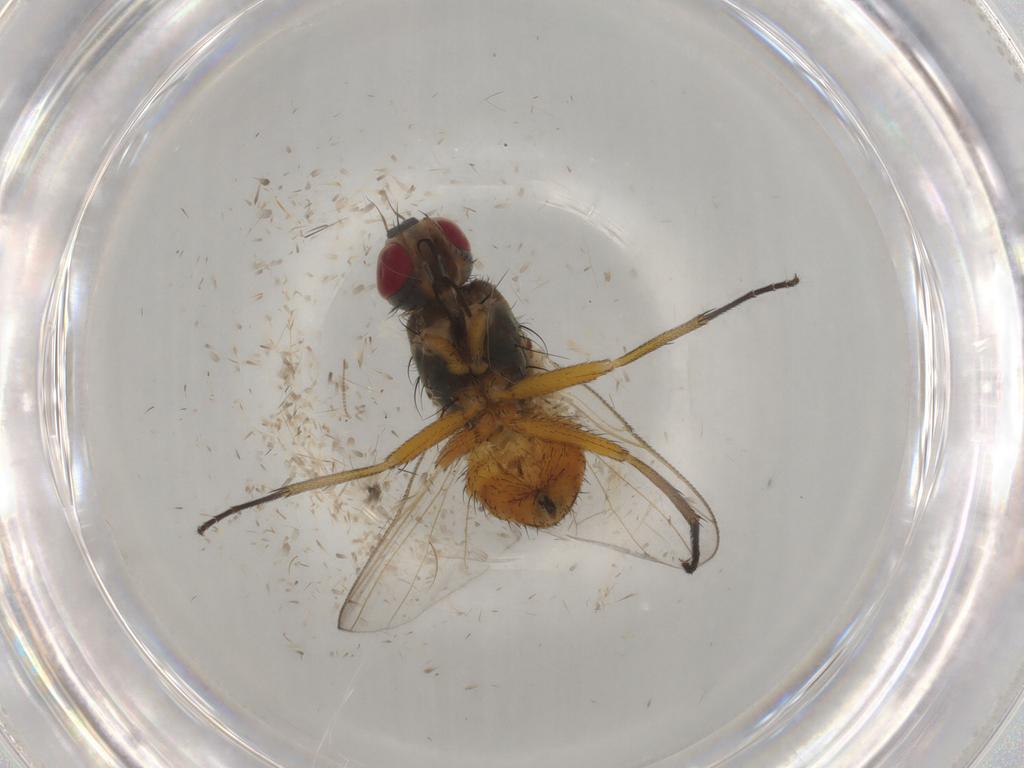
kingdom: Animalia
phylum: Arthropoda
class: Insecta
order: Diptera
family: Muscidae
